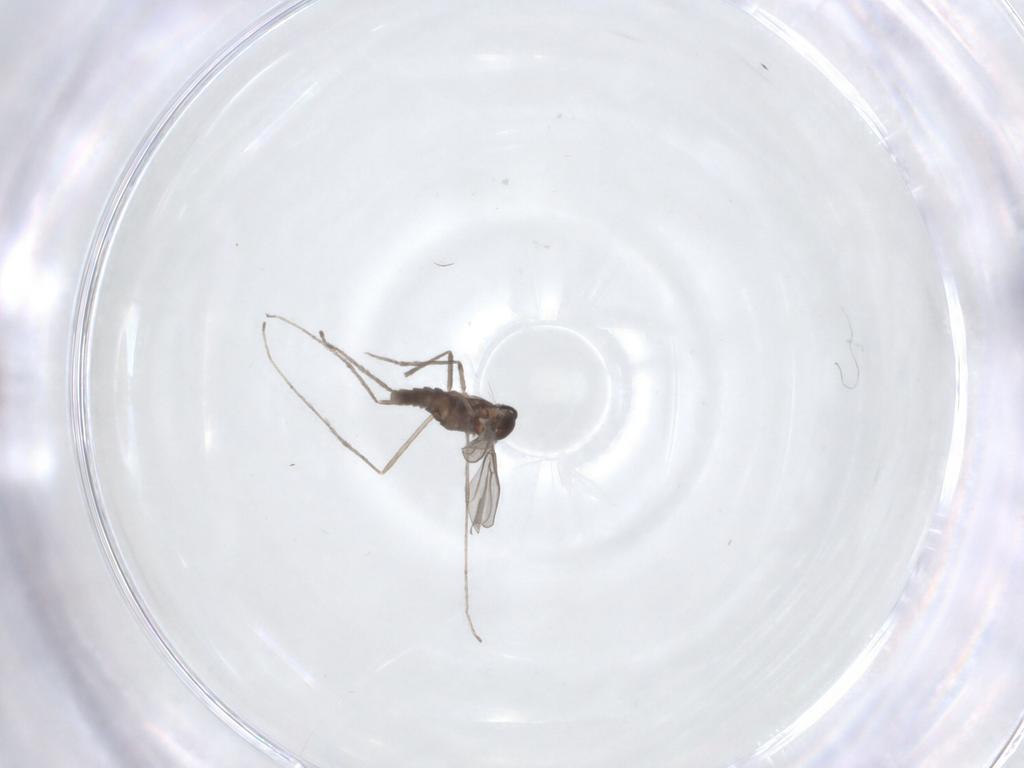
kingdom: Animalia
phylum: Arthropoda
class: Insecta
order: Diptera
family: Cecidomyiidae
